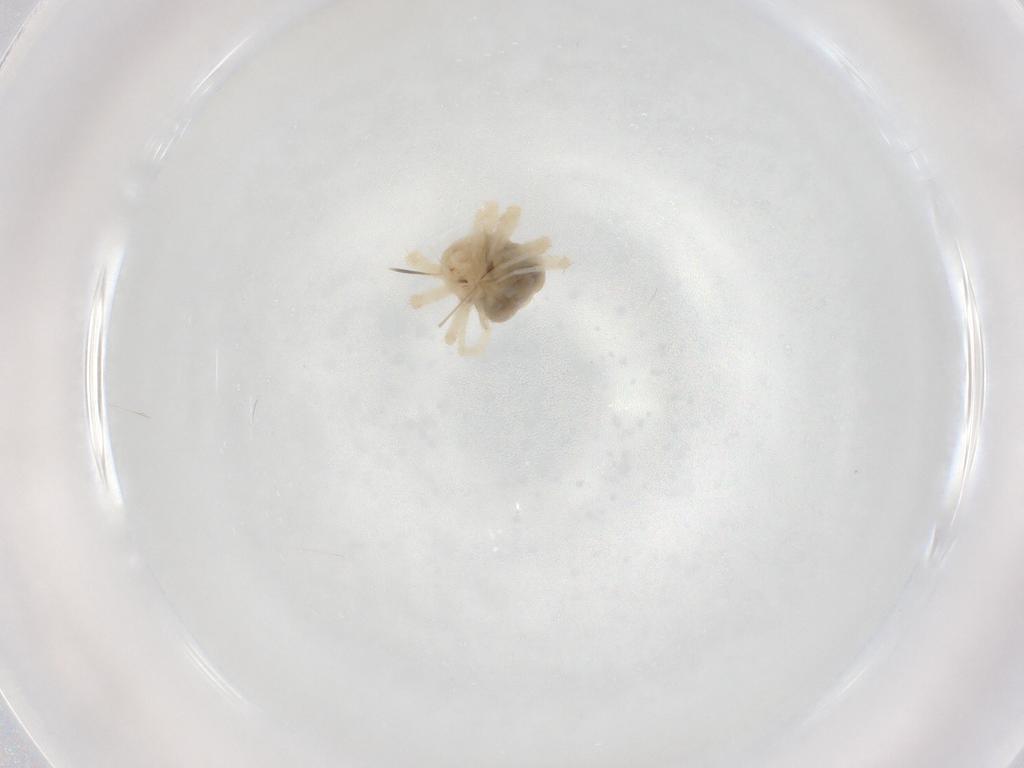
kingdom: Animalia
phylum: Arthropoda
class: Arachnida
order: Trombidiformes
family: Anystidae
